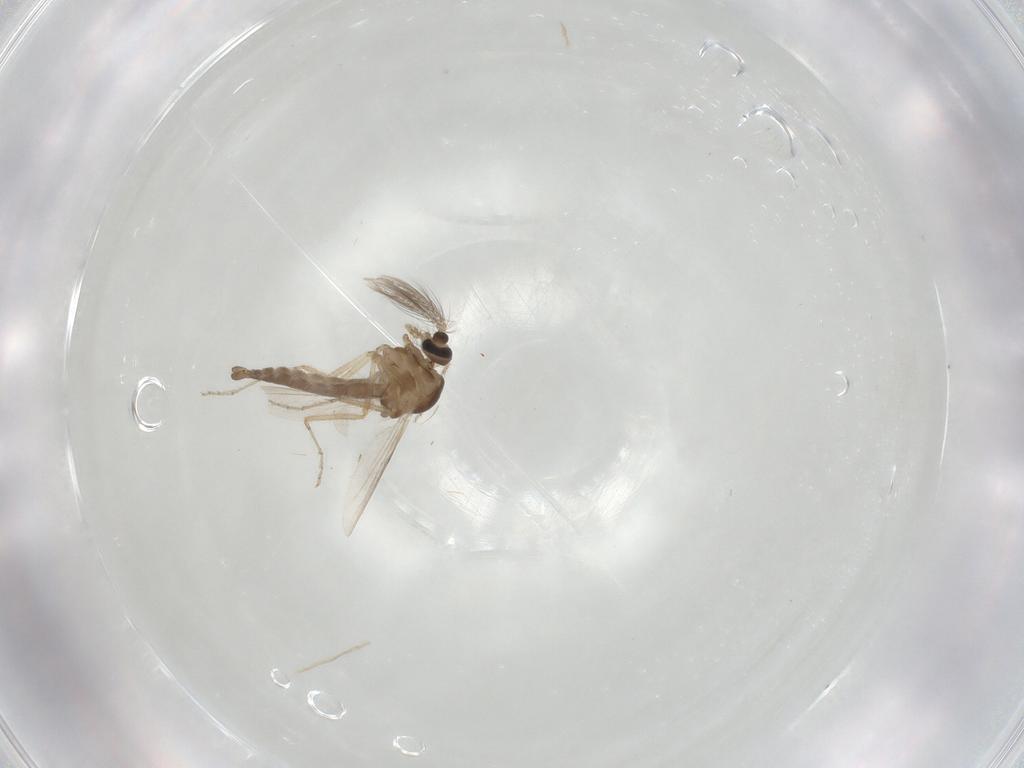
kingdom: Animalia
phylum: Arthropoda
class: Insecta
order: Diptera
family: Ceratopogonidae
